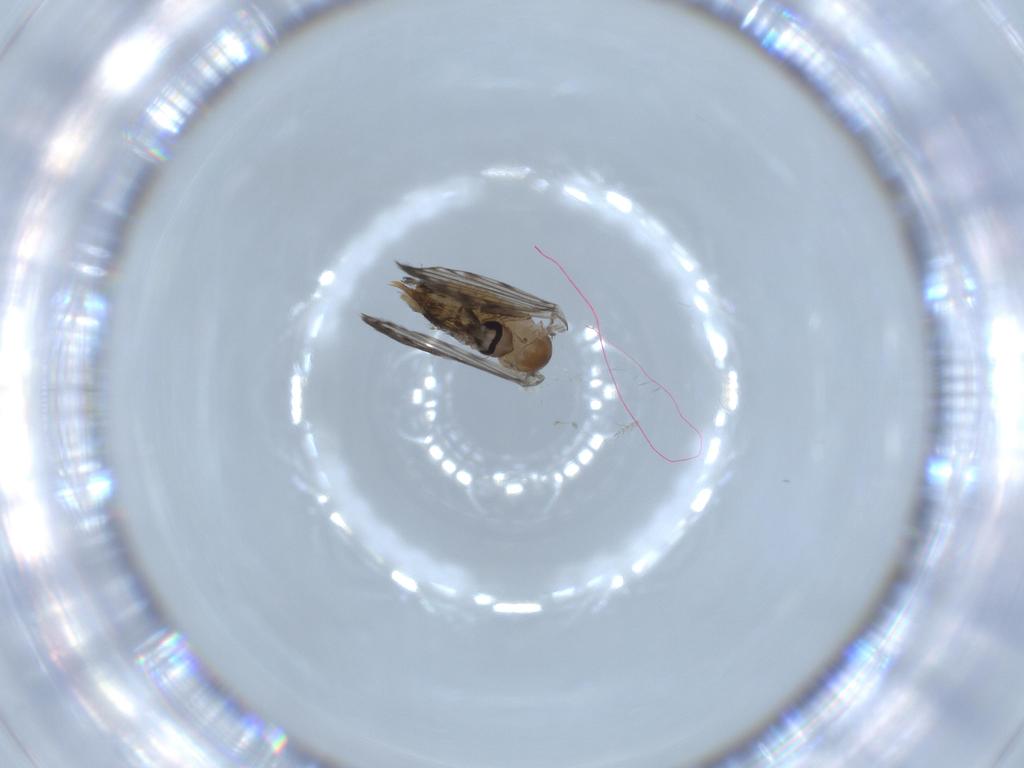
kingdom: Animalia
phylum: Arthropoda
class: Insecta
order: Diptera
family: Psychodidae
